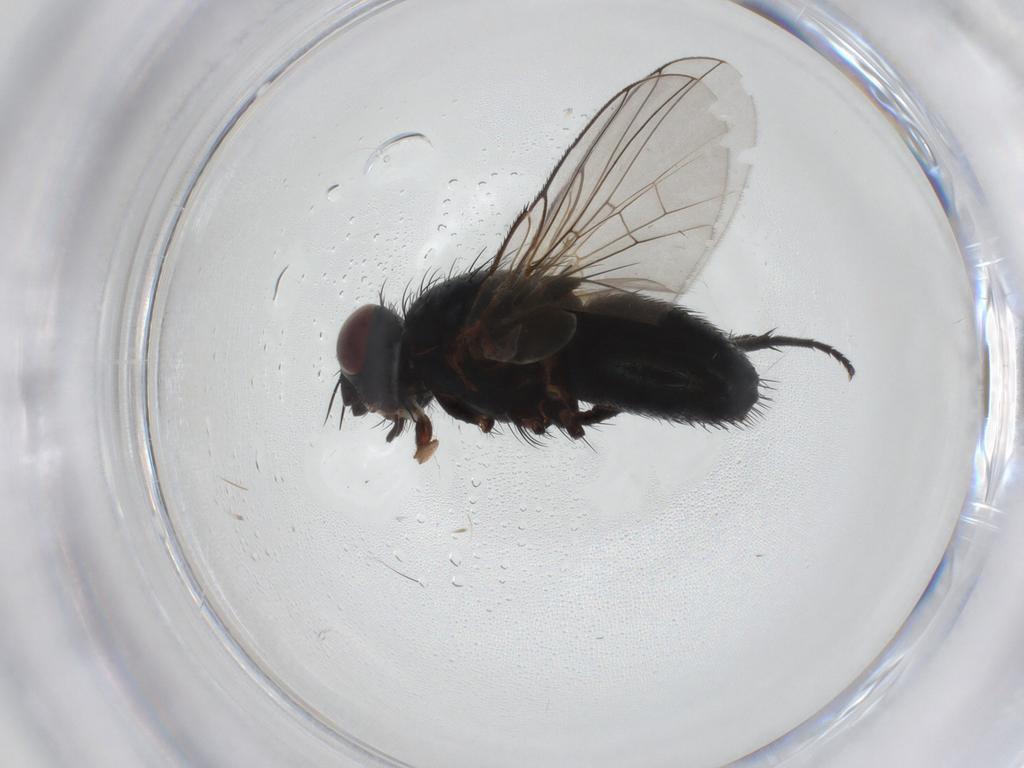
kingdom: Animalia
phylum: Arthropoda
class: Insecta
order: Diptera
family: Tachinidae
